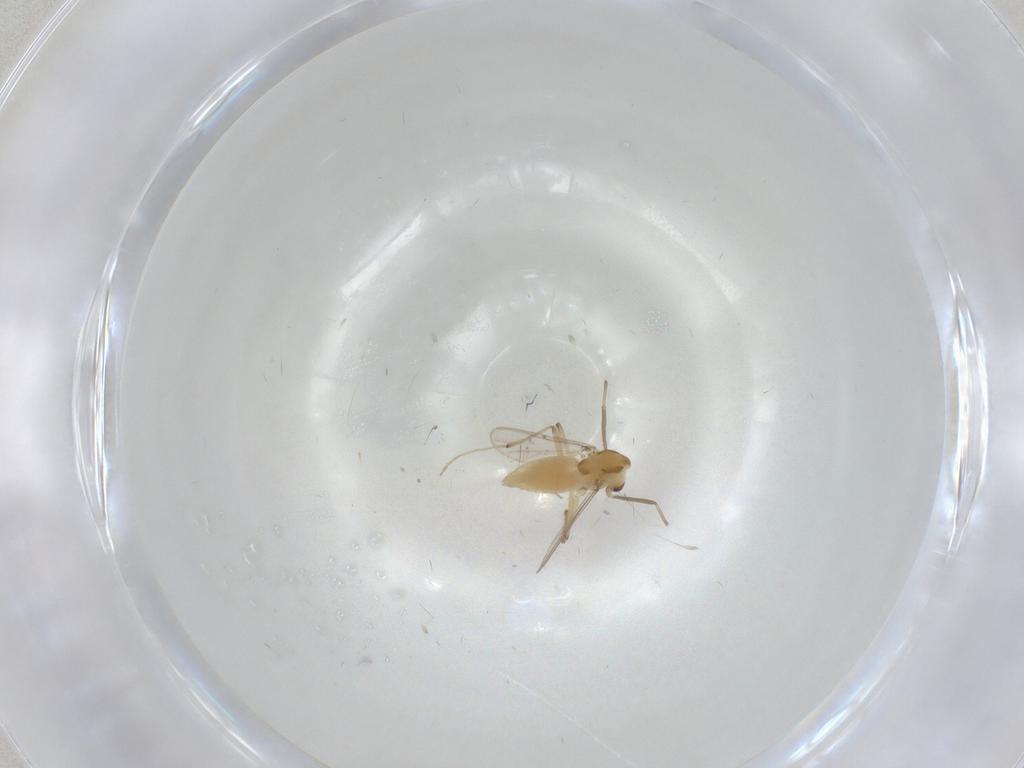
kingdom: Animalia
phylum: Arthropoda
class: Insecta
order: Diptera
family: Chironomidae
